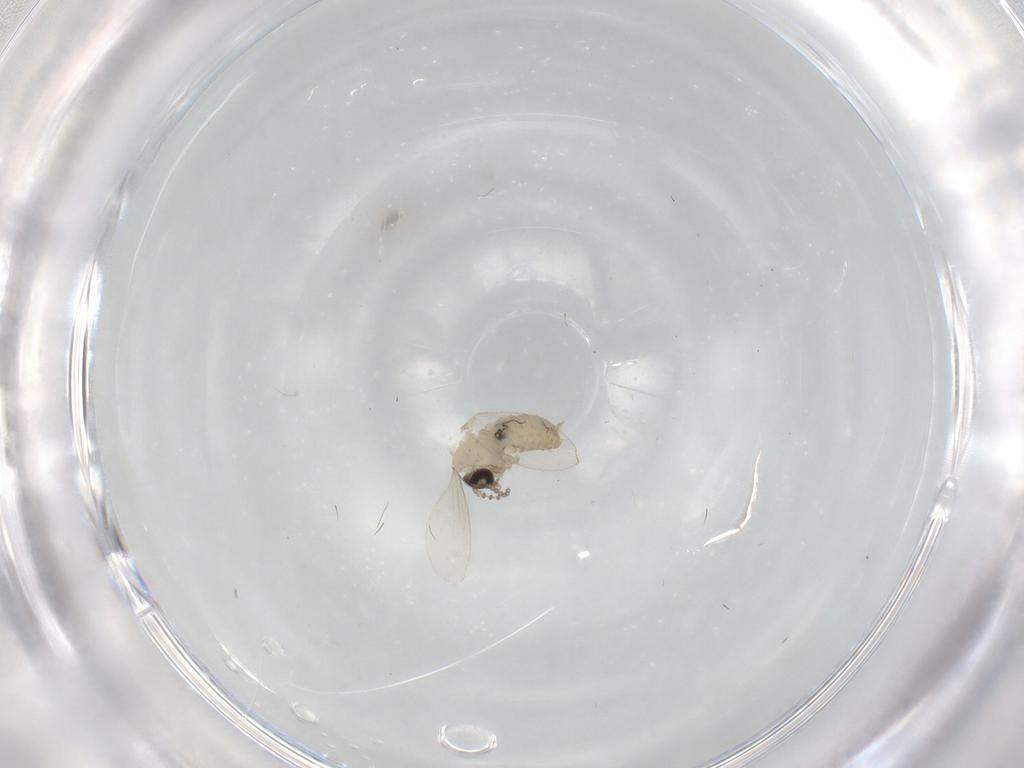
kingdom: Animalia
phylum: Arthropoda
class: Insecta
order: Diptera
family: Psychodidae
